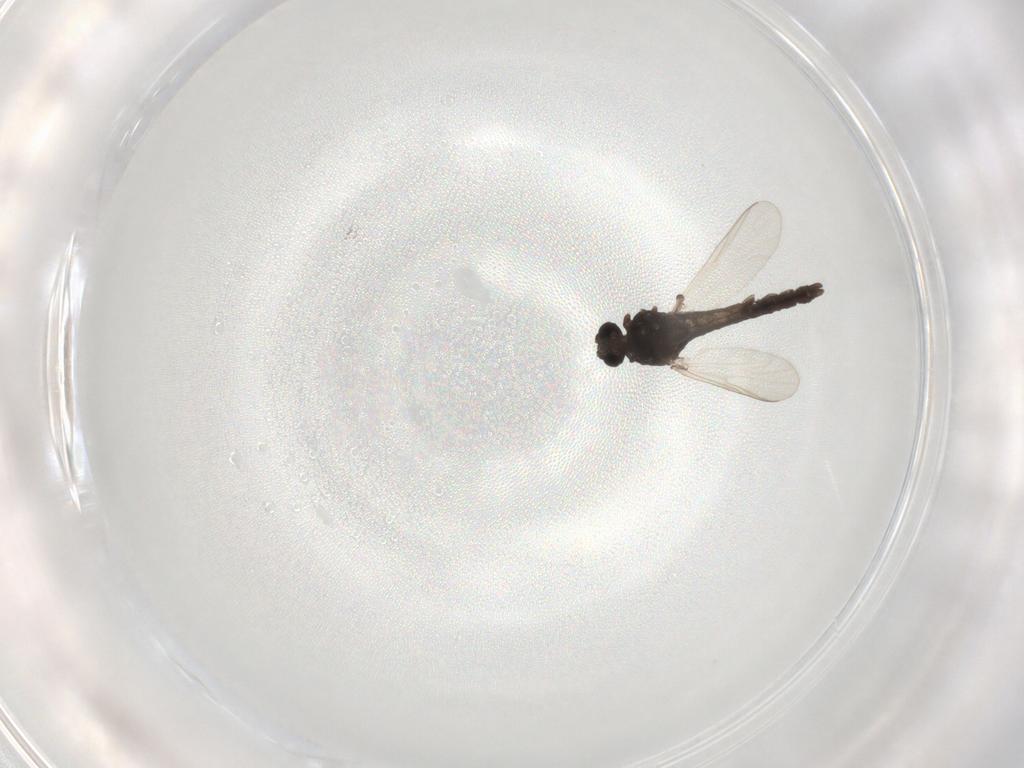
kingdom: Animalia
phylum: Arthropoda
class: Insecta
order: Diptera
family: Chironomidae
